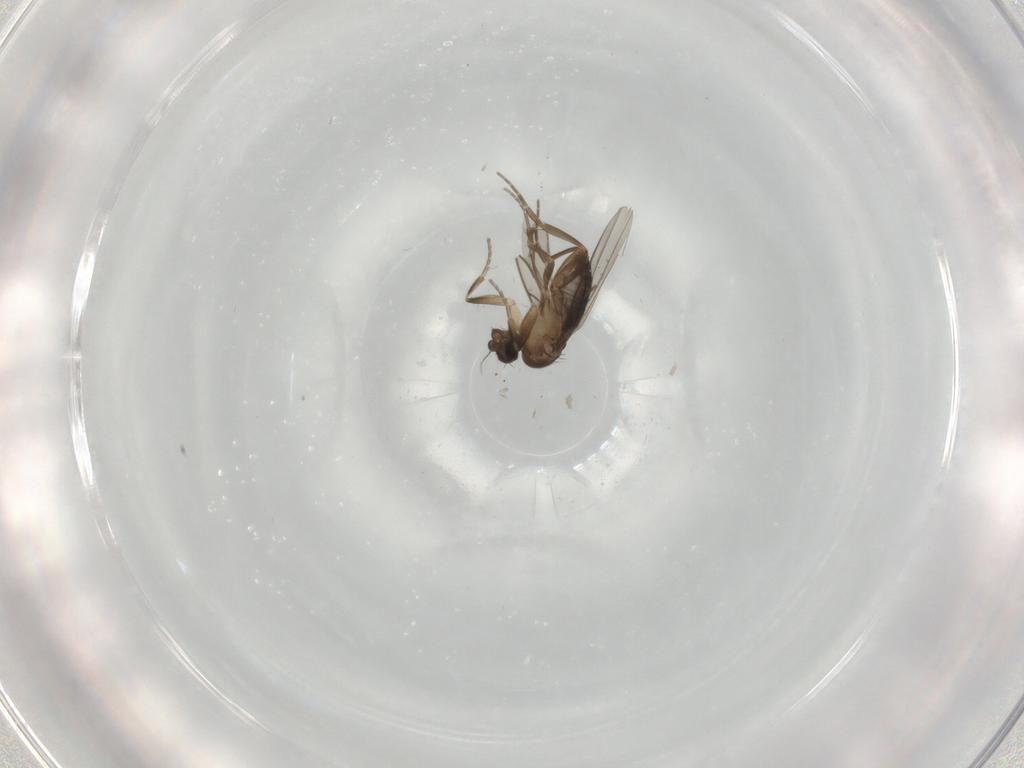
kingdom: Animalia
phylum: Arthropoda
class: Insecta
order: Diptera
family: Phoridae
